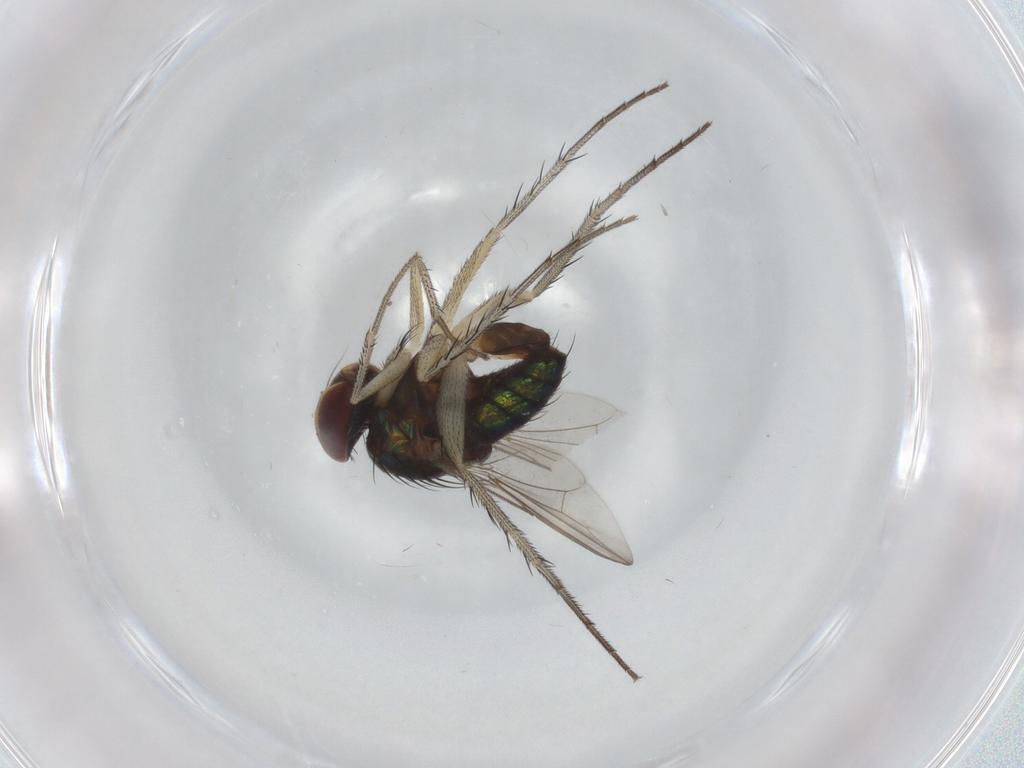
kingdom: Animalia
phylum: Arthropoda
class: Insecta
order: Diptera
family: Dolichopodidae
